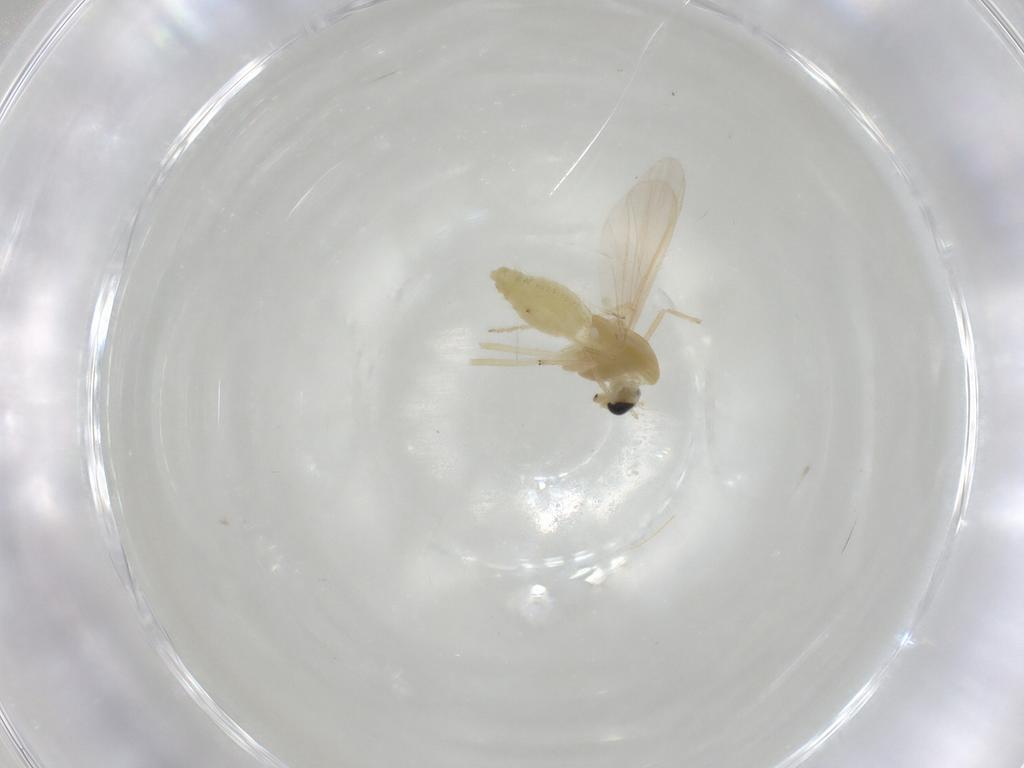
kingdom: Animalia
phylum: Arthropoda
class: Insecta
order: Diptera
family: Chironomidae
